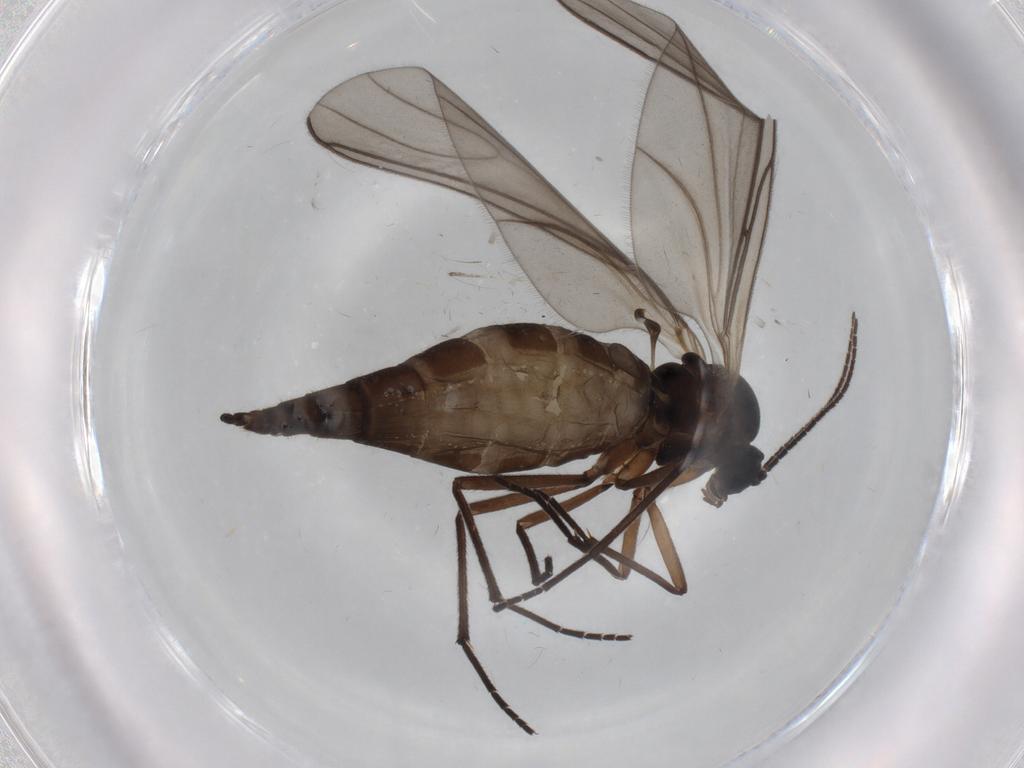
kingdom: Animalia
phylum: Arthropoda
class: Insecta
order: Diptera
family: Sciaridae
